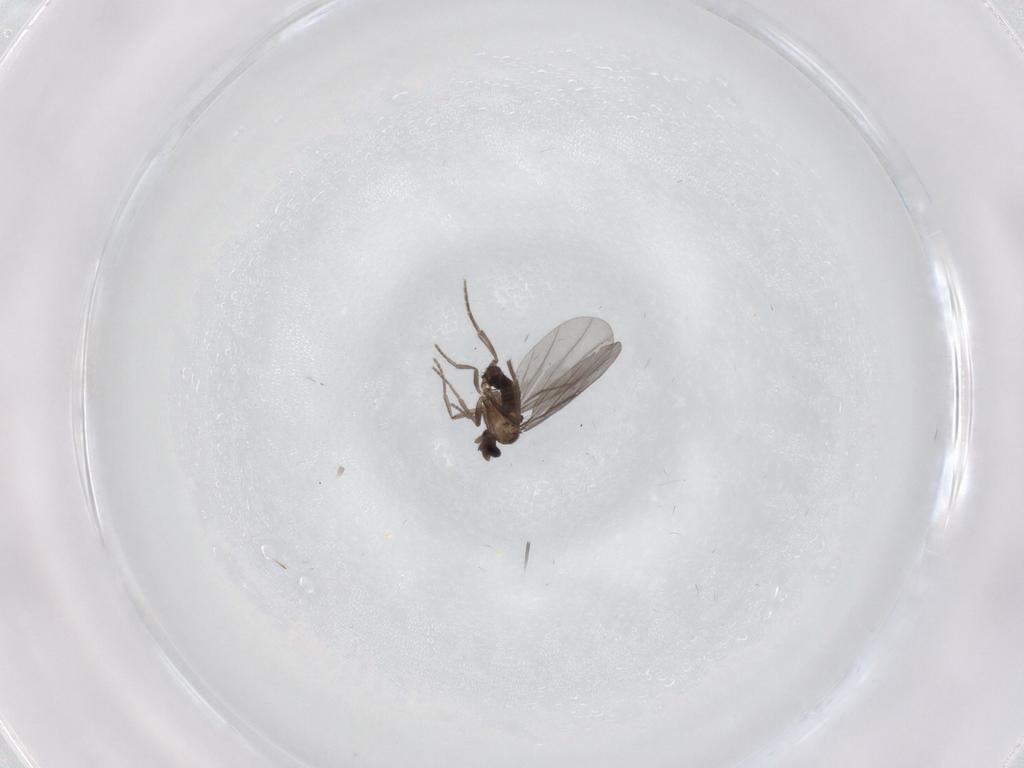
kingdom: Animalia
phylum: Arthropoda
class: Insecta
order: Diptera
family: Cecidomyiidae
